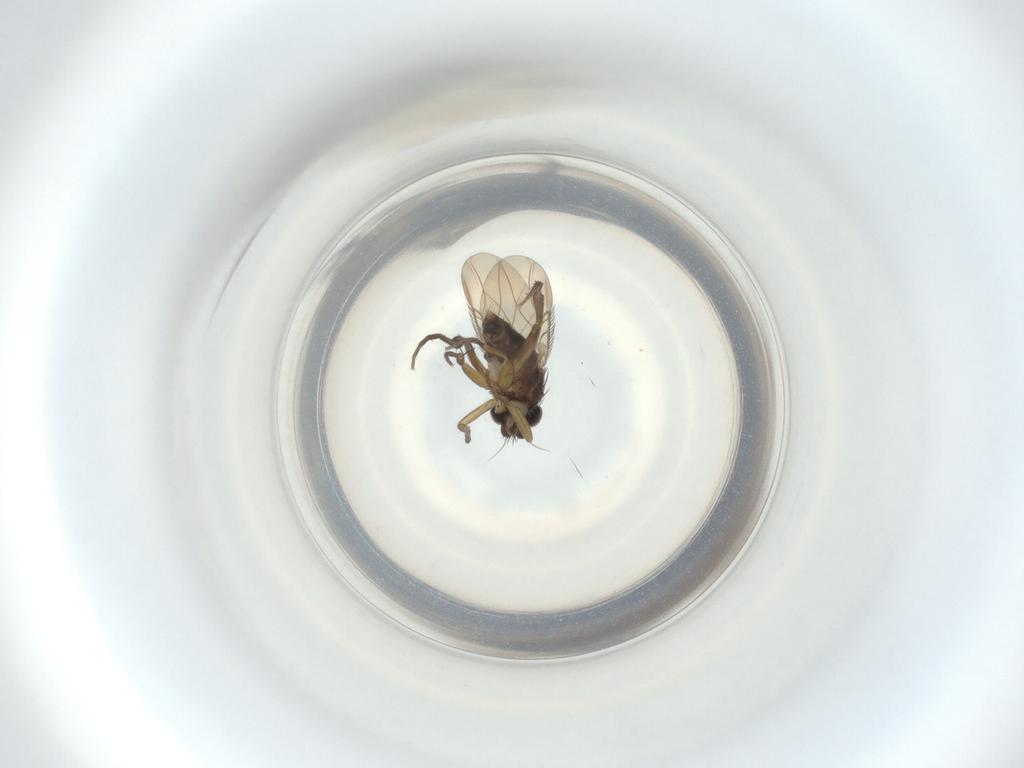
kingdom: Animalia
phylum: Arthropoda
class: Insecta
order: Diptera
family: Phoridae
